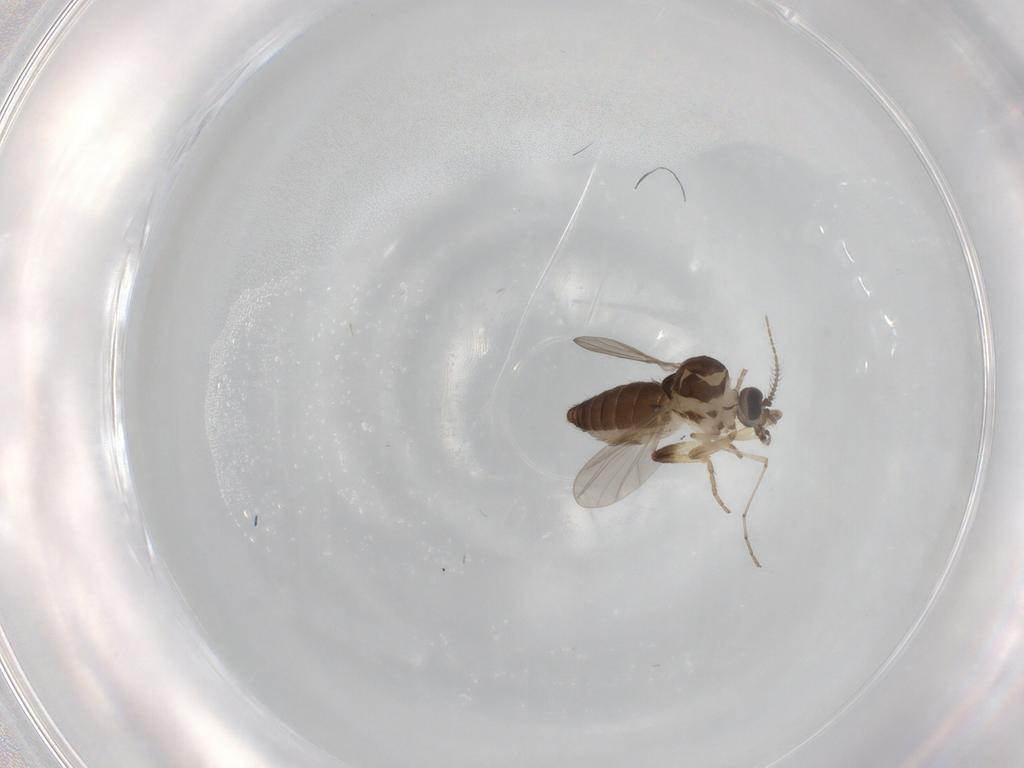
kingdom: Animalia
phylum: Arthropoda
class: Insecta
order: Diptera
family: Ceratopogonidae
